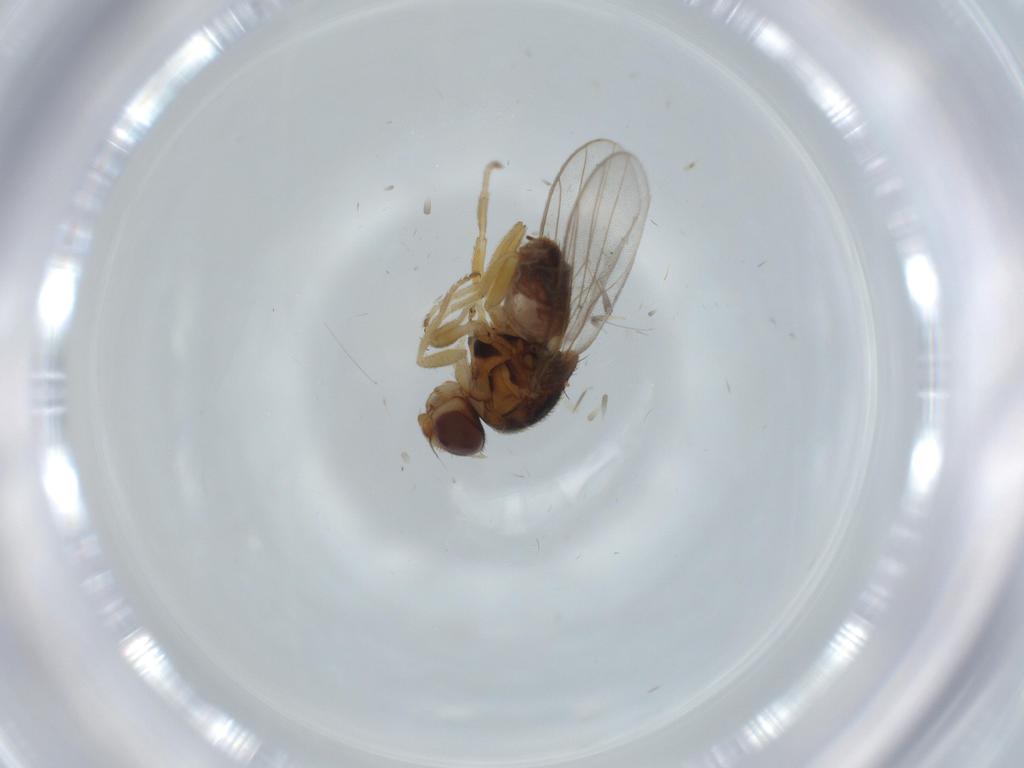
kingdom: Animalia
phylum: Arthropoda
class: Insecta
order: Diptera
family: Chloropidae
